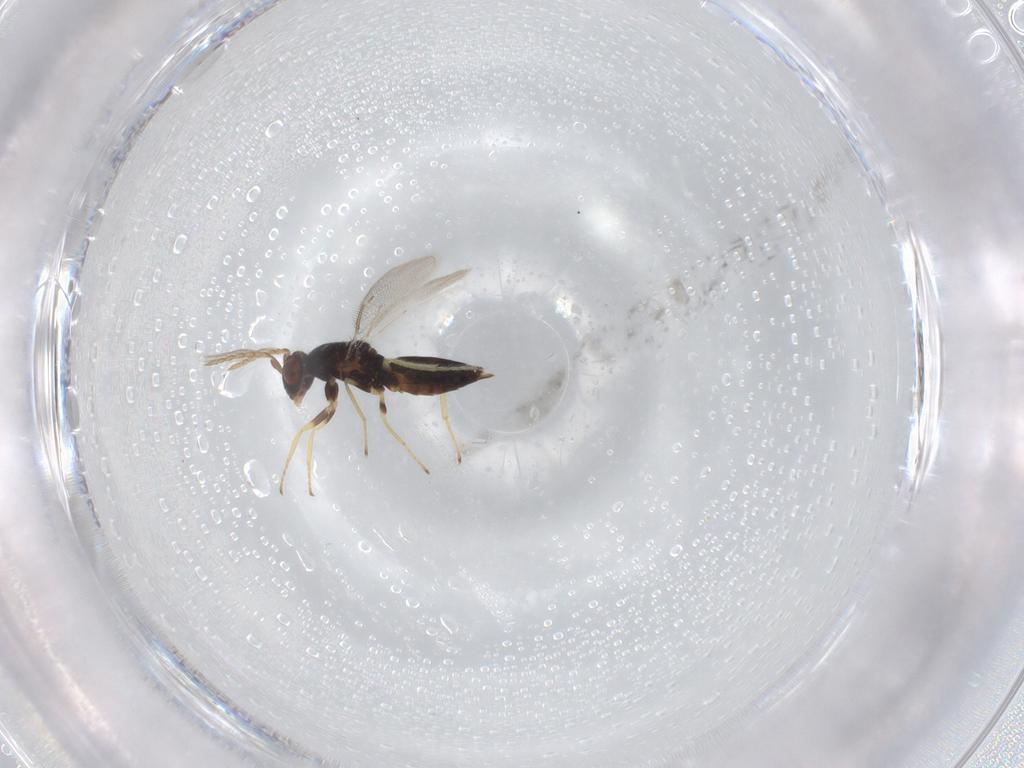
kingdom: Animalia
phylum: Arthropoda
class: Insecta
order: Hymenoptera
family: Eulophidae
